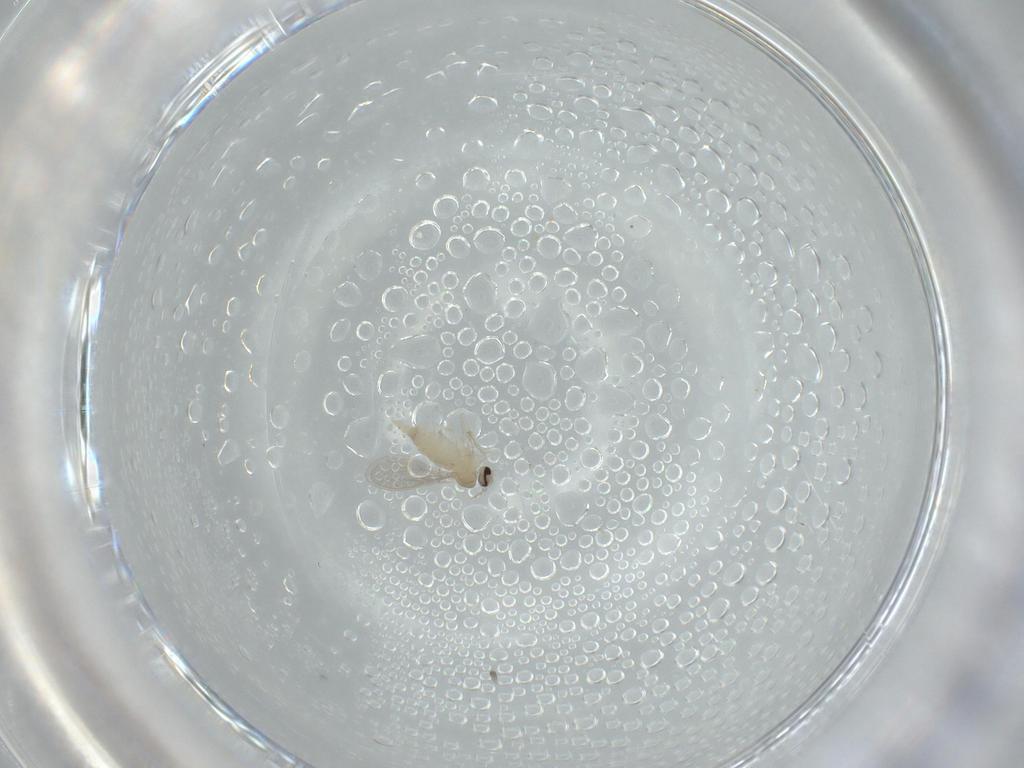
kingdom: Animalia
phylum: Arthropoda
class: Insecta
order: Diptera
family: Cecidomyiidae
